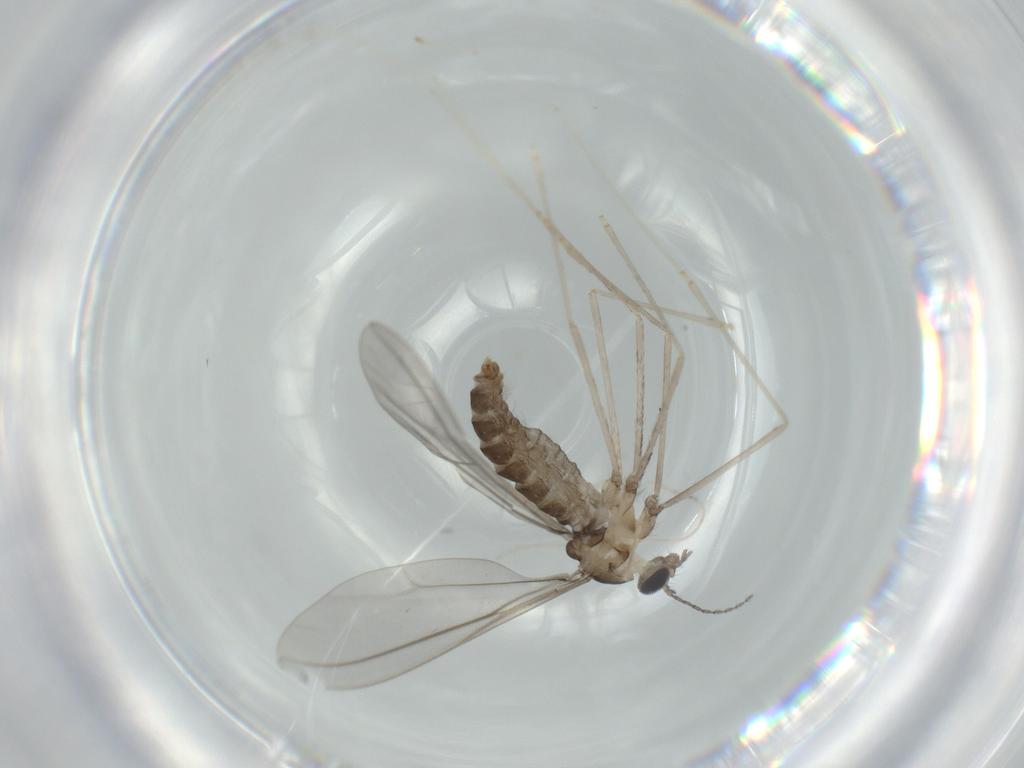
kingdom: Animalia
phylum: Arthropoda
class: Insecta
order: Diptera
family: Cecidomyiidae
